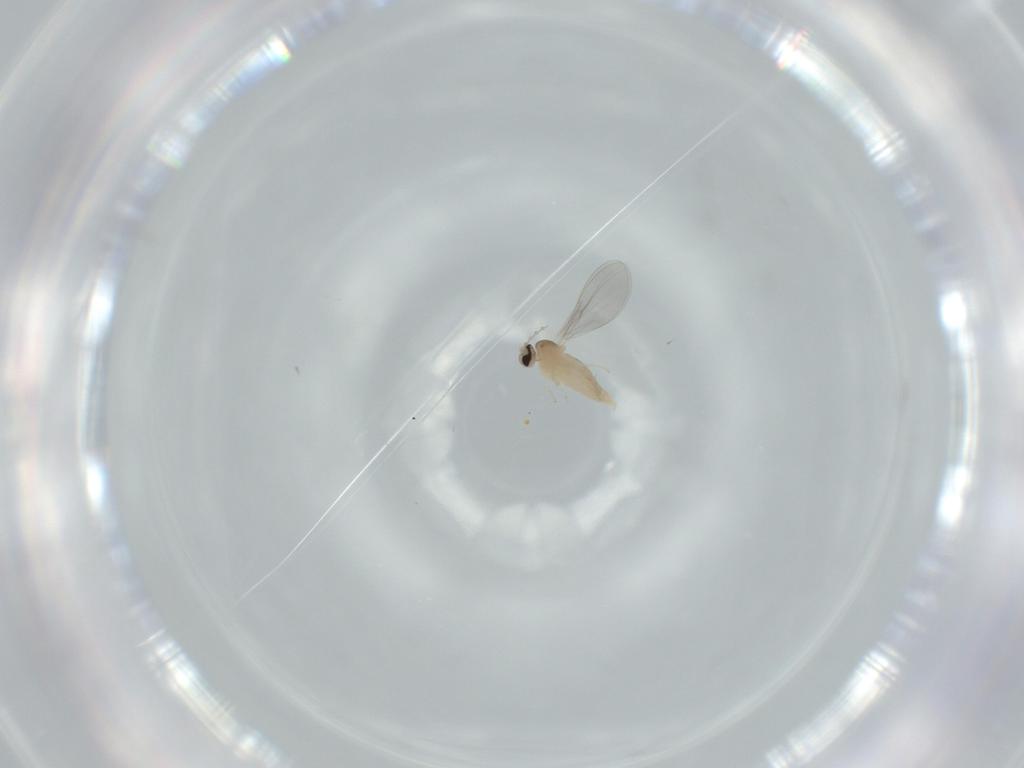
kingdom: Animalia
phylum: Arthropoda
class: Insecta
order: Diptera
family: Cecidomyiidae
